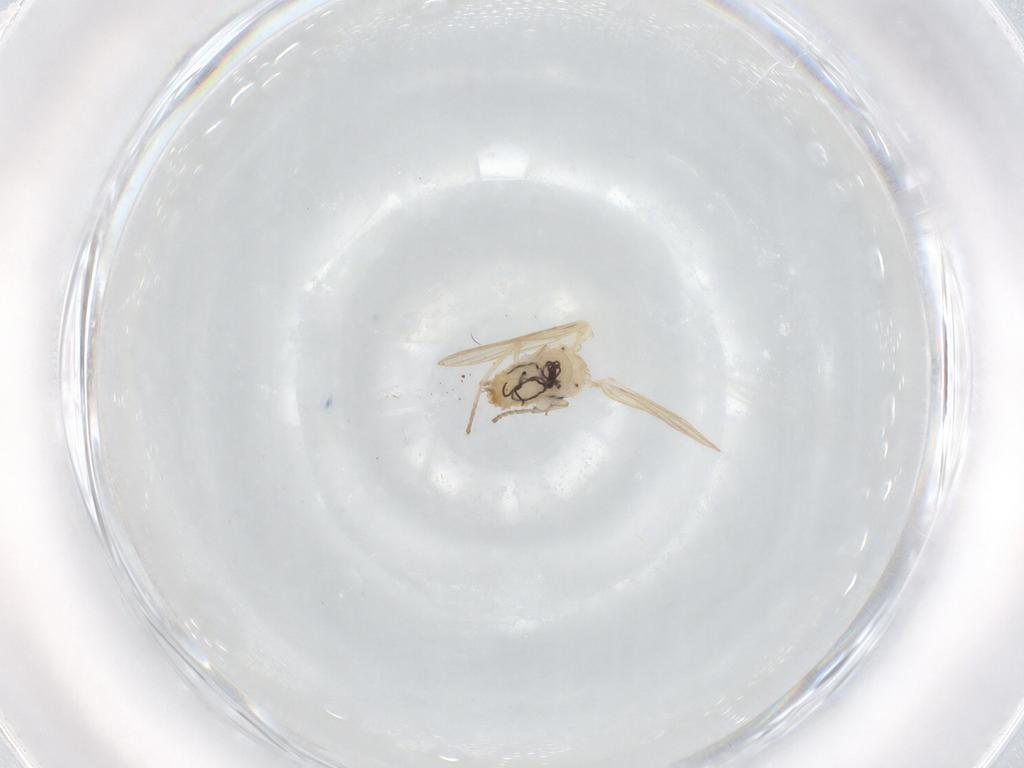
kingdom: Animalia
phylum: Arthropoda
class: Insecta
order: Diptera
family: Psychodidae
